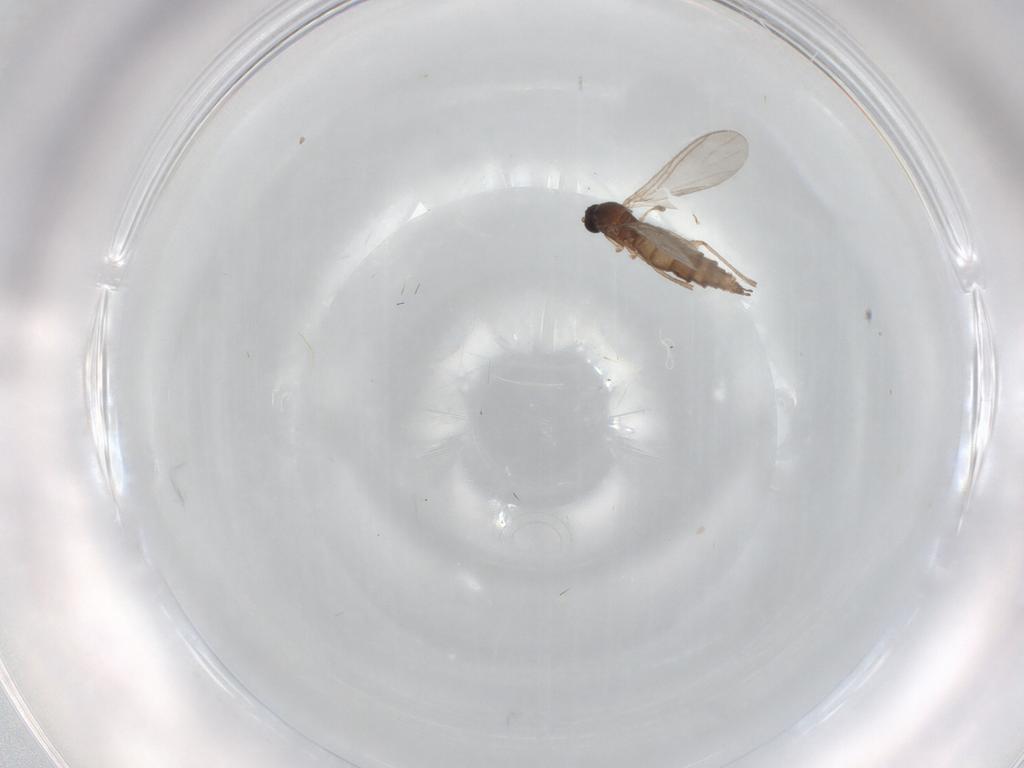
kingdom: Animalia
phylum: Arthropoda
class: Insecta
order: Diptera
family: Sciaridae
